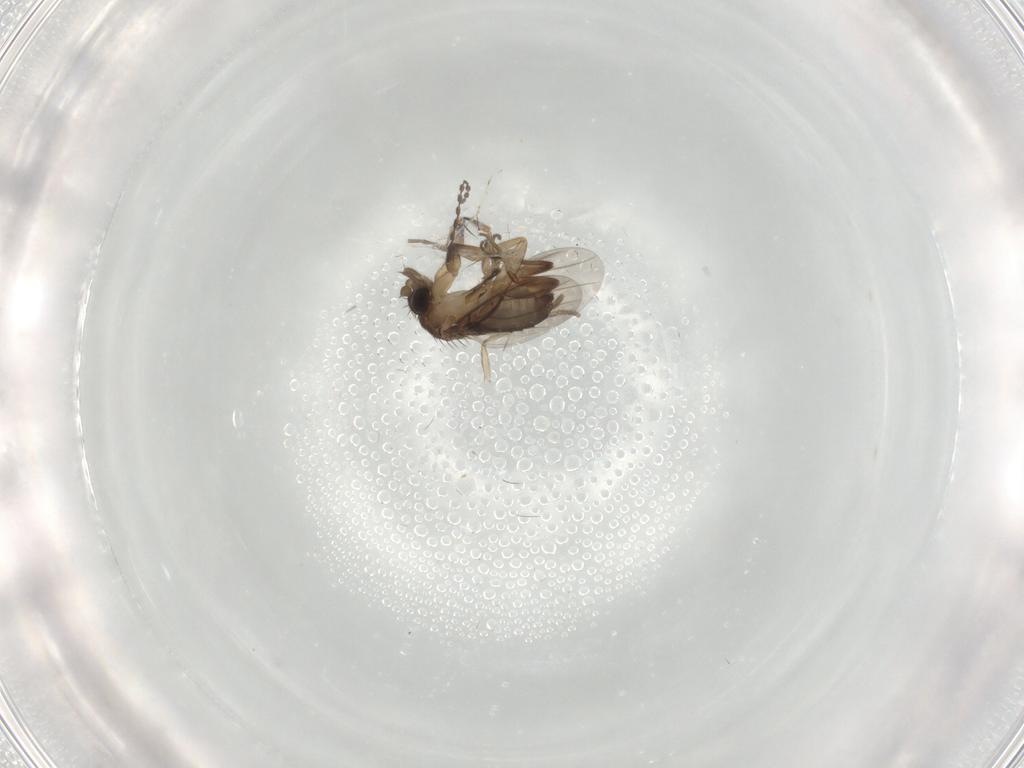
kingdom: Animalia
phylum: Arthropoda
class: Insecta
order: Diptera
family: Phoridae
